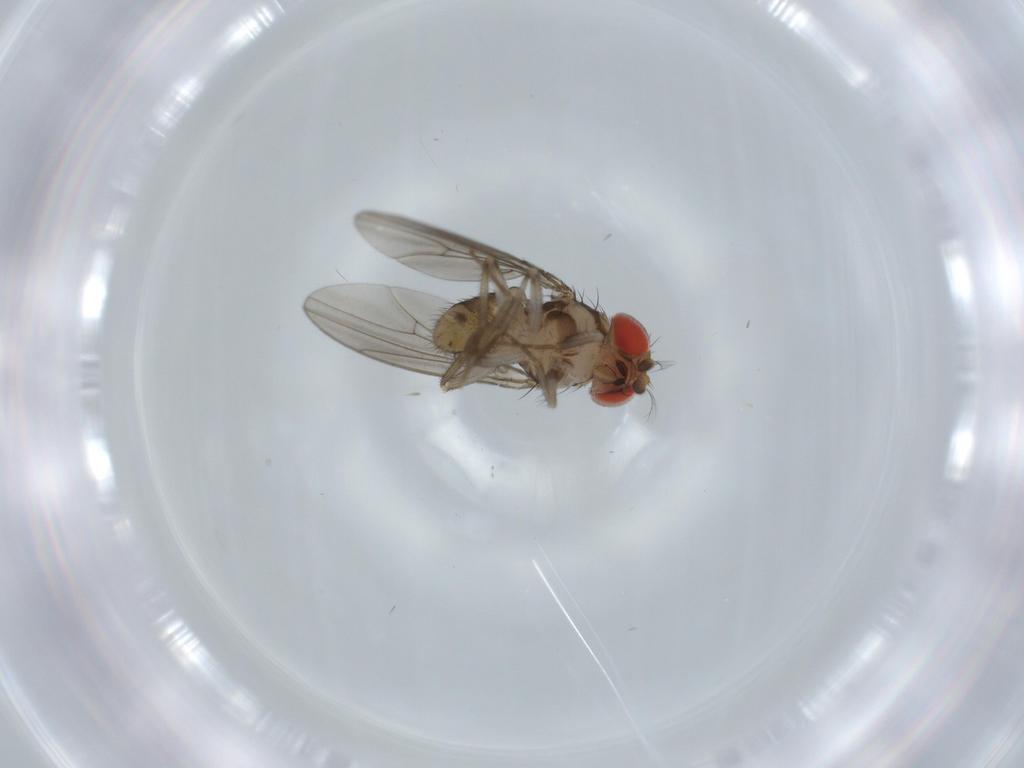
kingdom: Animalia
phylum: Arthropoda
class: Insecta
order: Diptera
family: Drosophilidae
